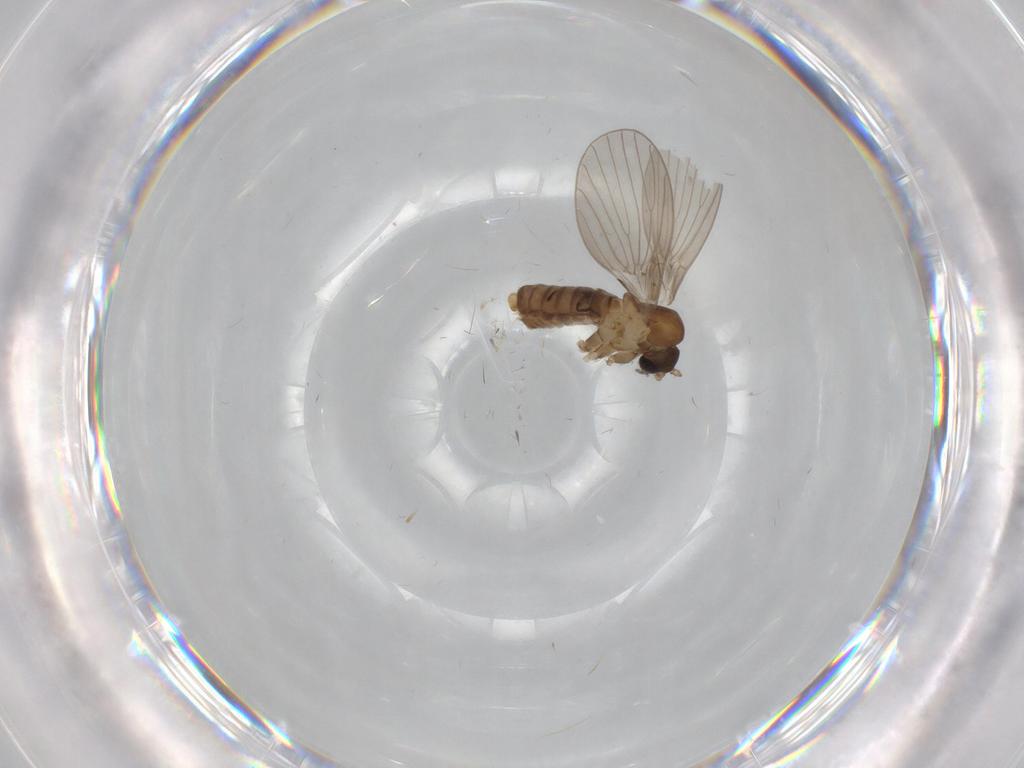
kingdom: Animalia
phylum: Arthropoda
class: Insecta
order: Diptera
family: Psychodidae
